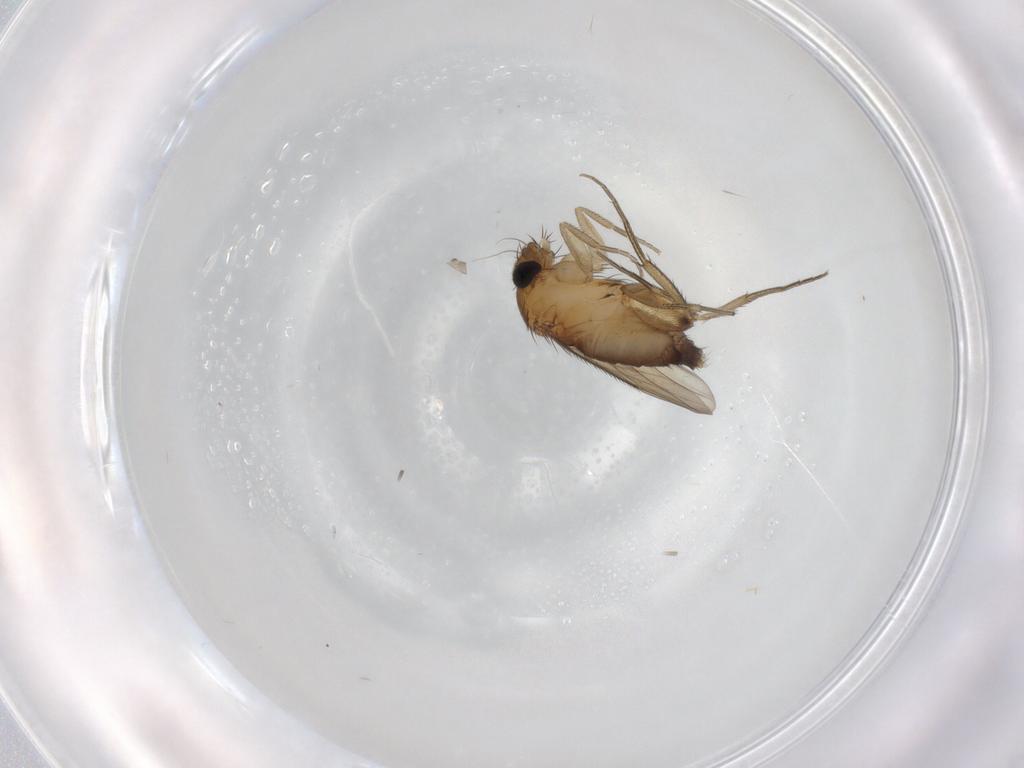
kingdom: Animalia
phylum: Arthropoda
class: Insecta
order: Diptera
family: Phoridae
